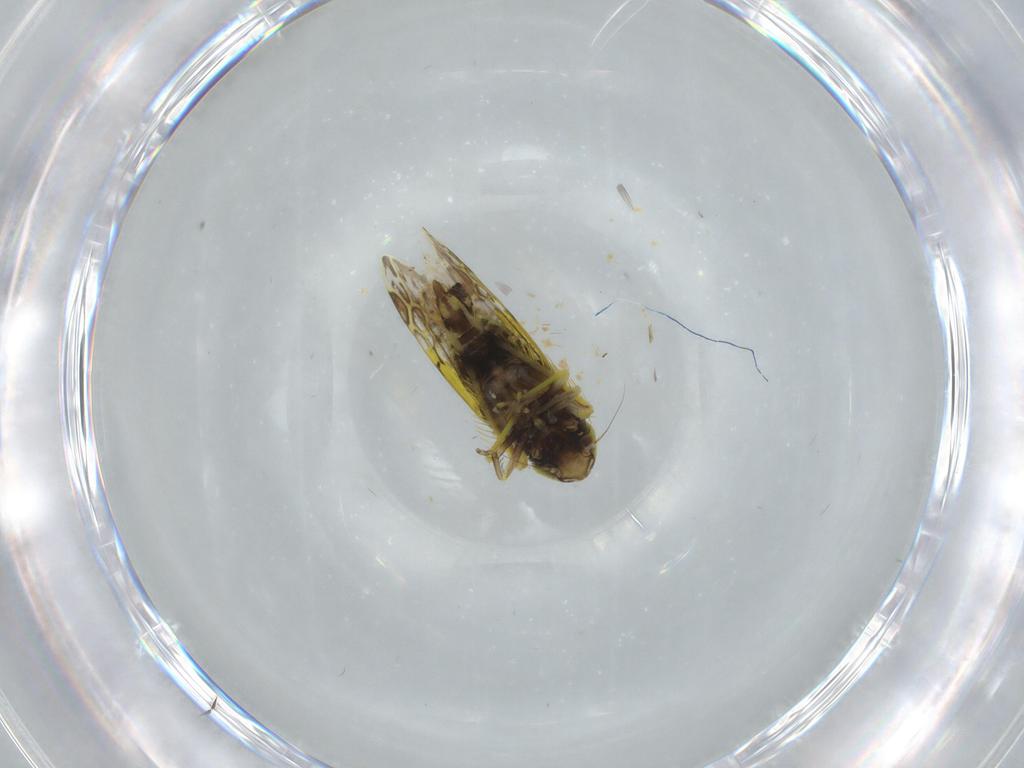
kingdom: Animalia
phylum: Arthropoda
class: Insecta
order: Hemiptera
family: Cicadellidae
